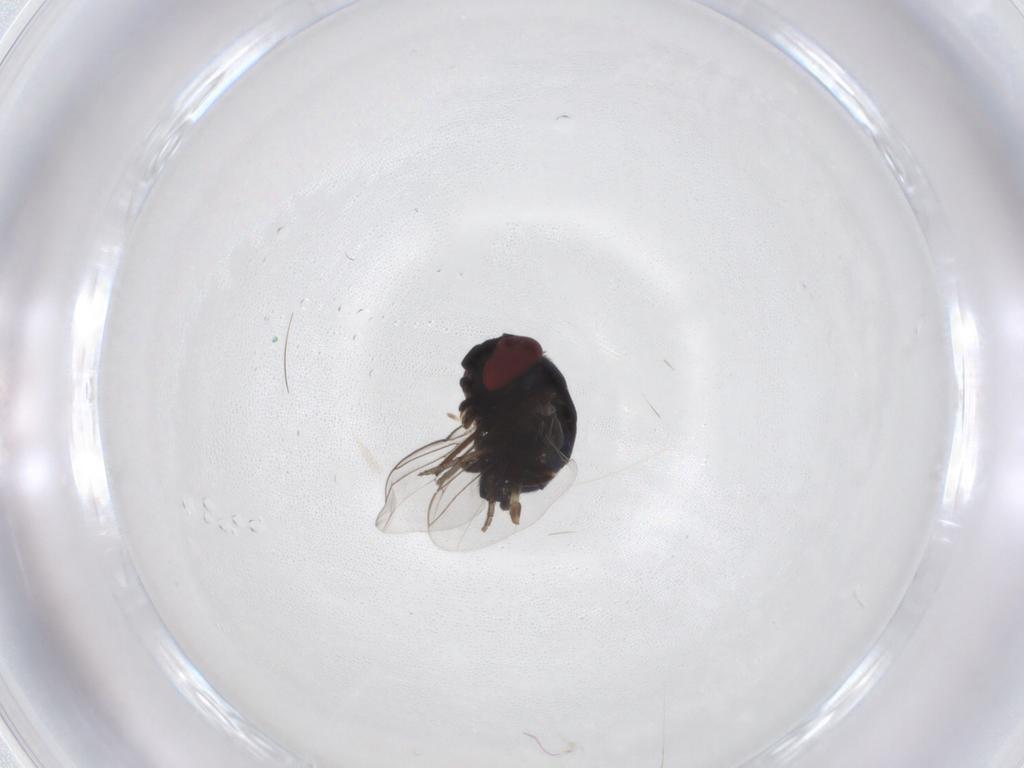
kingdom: Animalia
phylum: Arthropoda
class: Insecta
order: Diptera
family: Cryptochetidae
